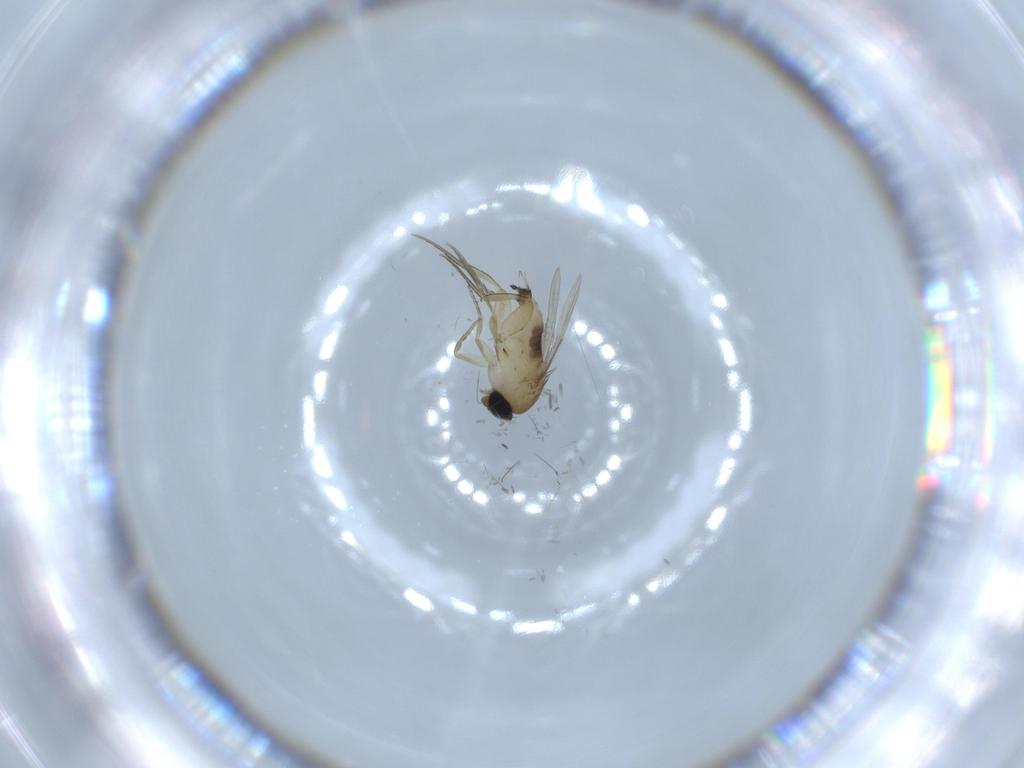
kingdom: Animalia
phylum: Arthropoda
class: Insecta
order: Diptera
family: Phoridae
